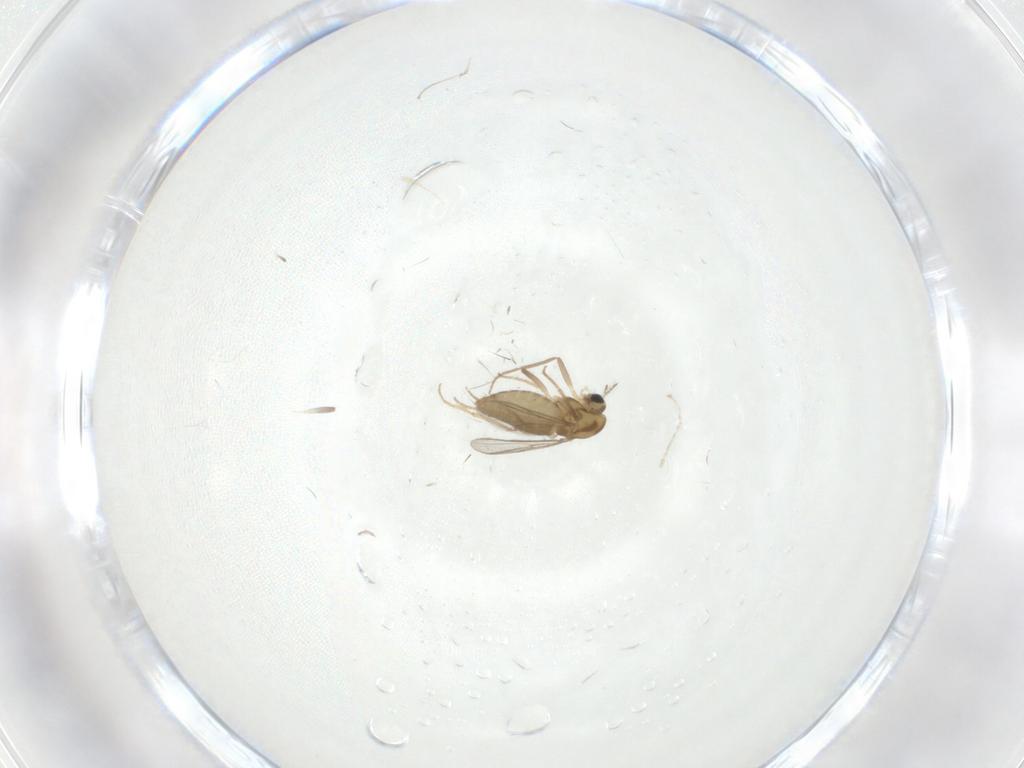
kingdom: Animalia
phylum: Arthropoda
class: Insecta
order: Diptera
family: Cecidomyiidae
